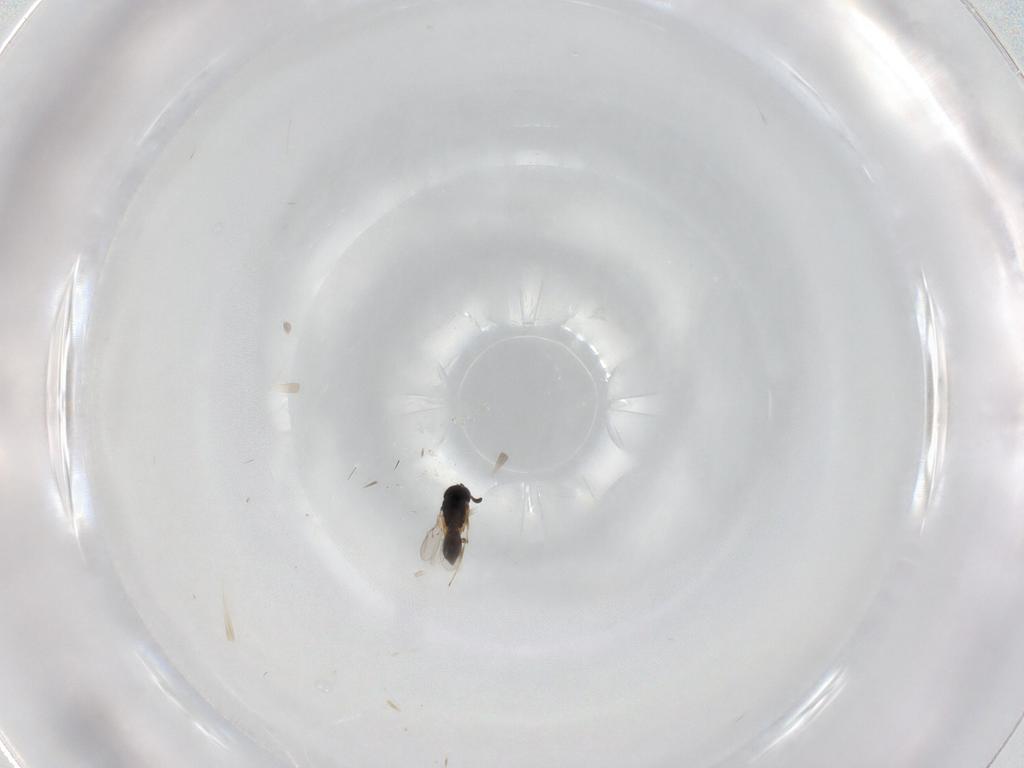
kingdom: Animalia
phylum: Arthropoda
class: Insecta
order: Hymenoptera
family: Scelionidae
